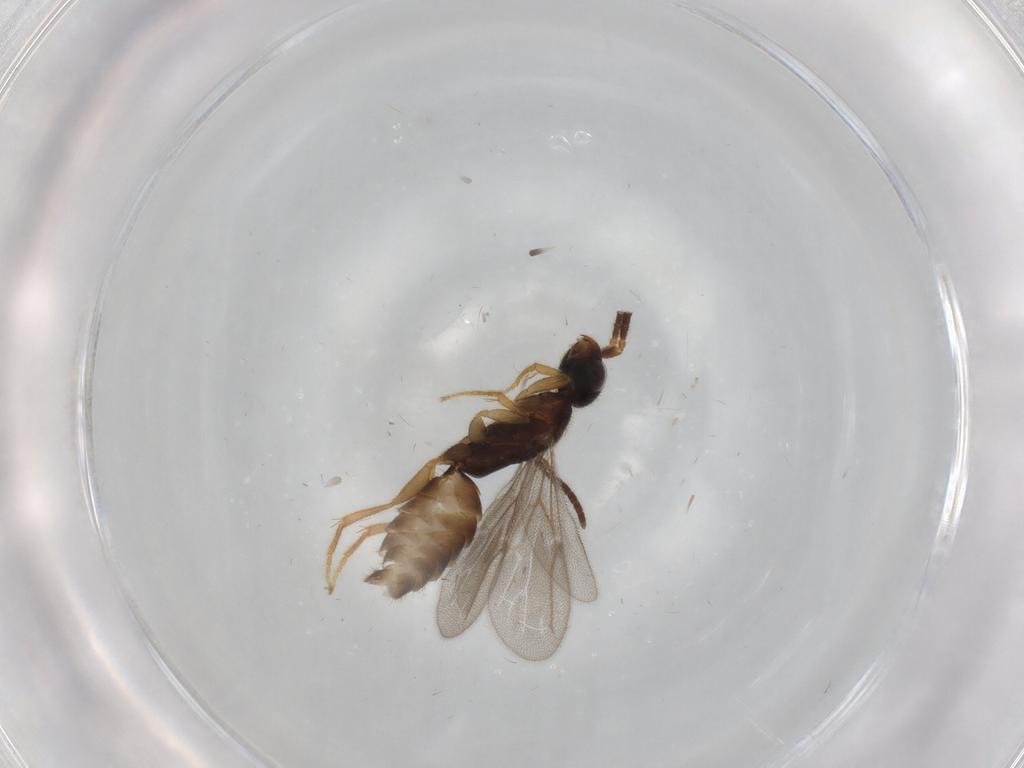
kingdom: Animalia
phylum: Arthropoda
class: Insecta
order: Hymenoptera
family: Bethylidae
